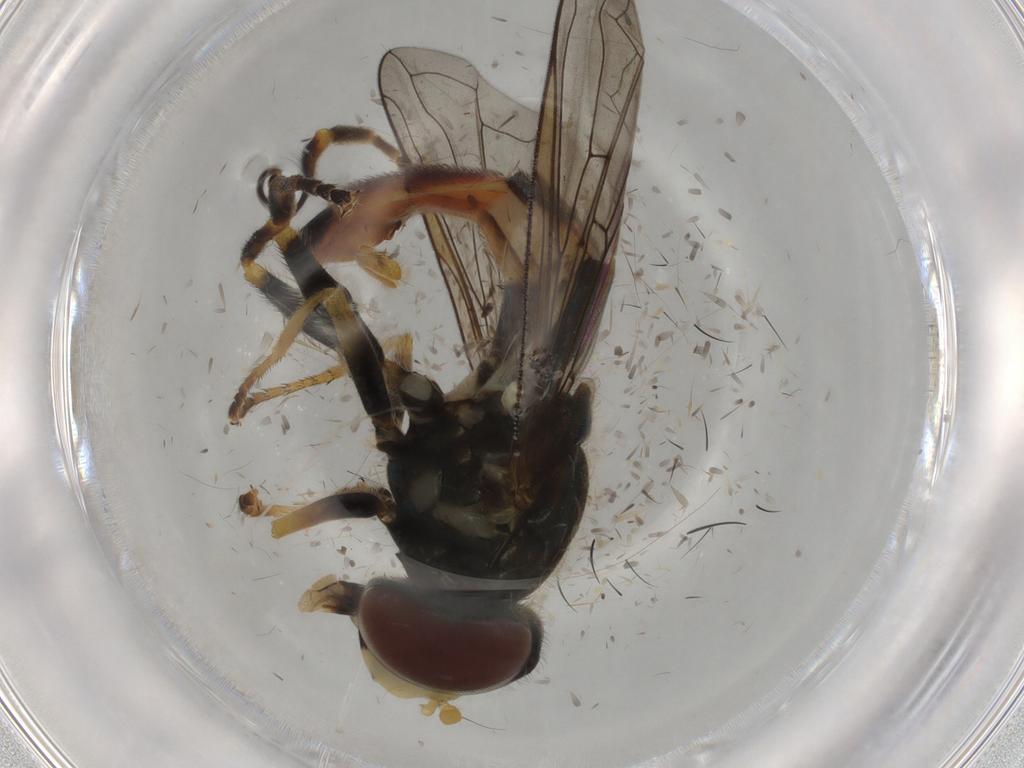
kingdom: Animalia
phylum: Arthropoda
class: Insecta
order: Diptera
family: Syrphidae
